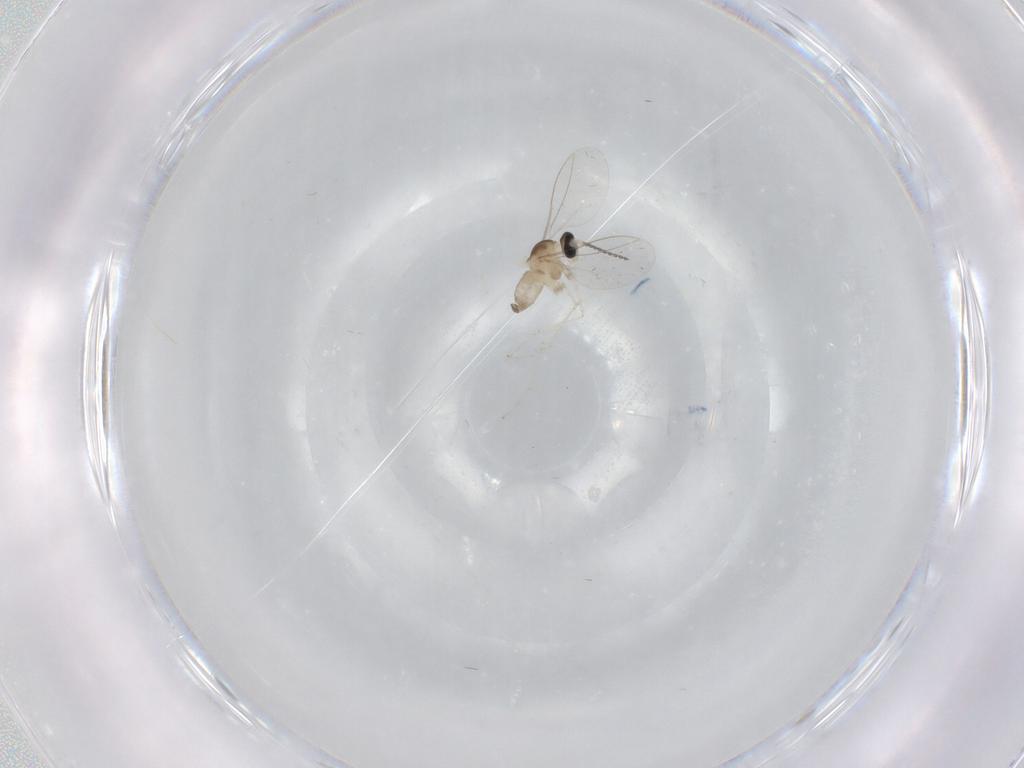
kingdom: Animalia
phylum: Arthropoda
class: Insecta
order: Diptera
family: Cecidomyiidae
